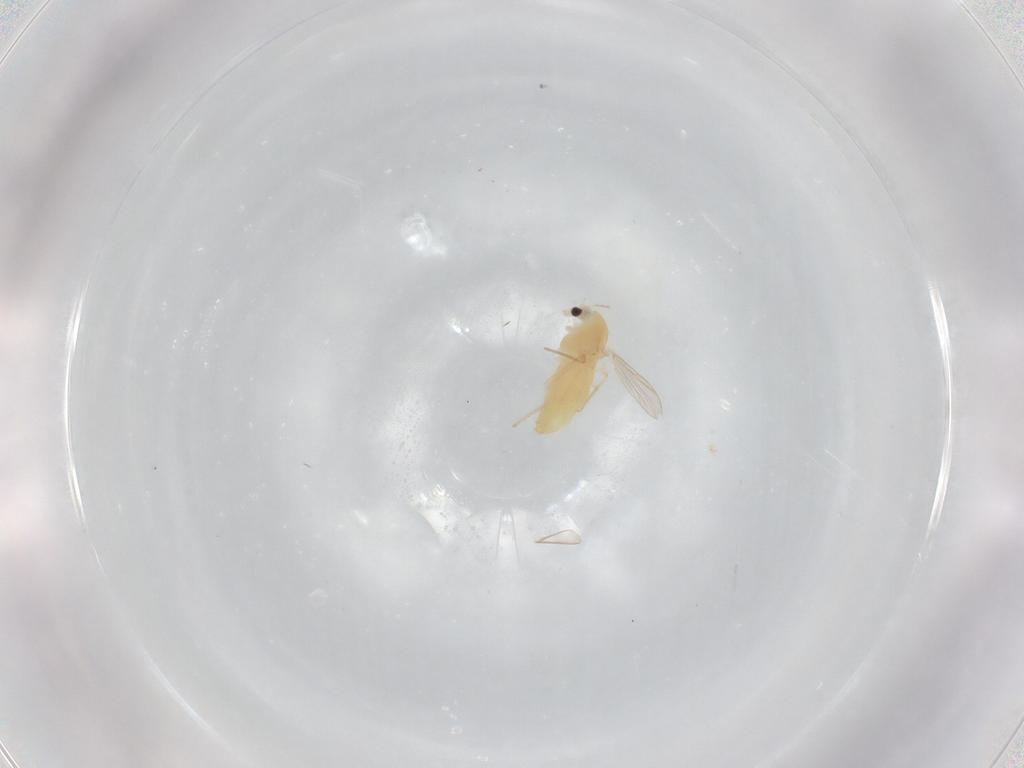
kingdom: Animalia
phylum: Arthropoda
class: Insecta
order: Diptera
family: Chironomidae
